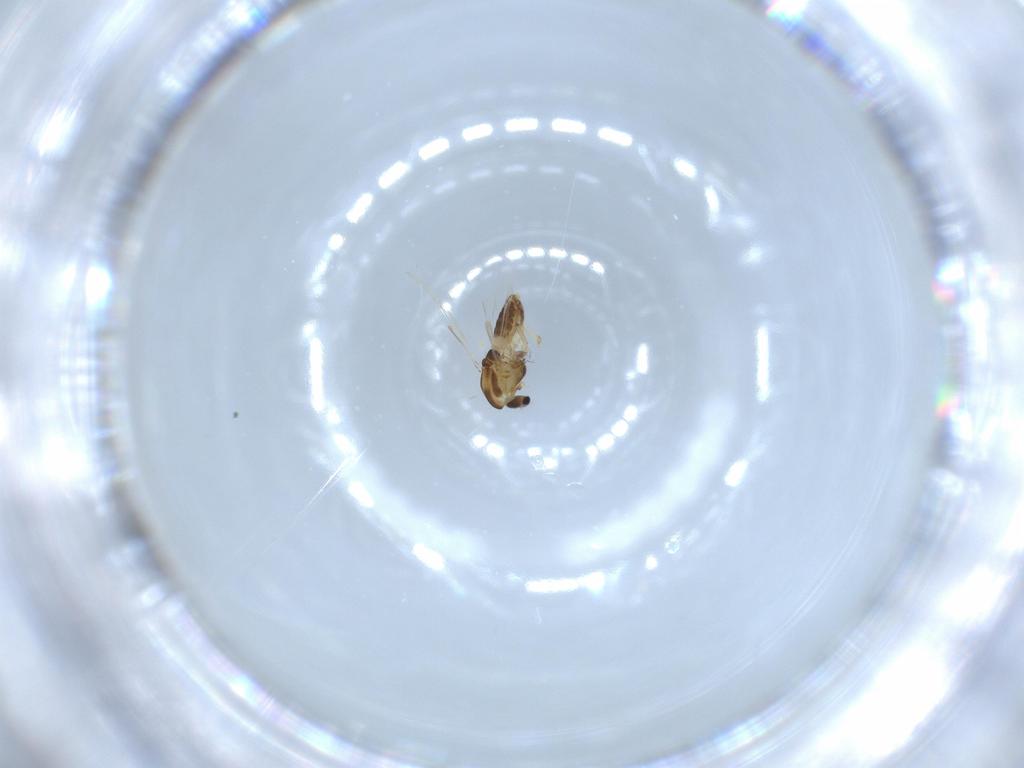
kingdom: Animalia
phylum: Arthropoda
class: Insecta
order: Diptera
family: Chironomidae
